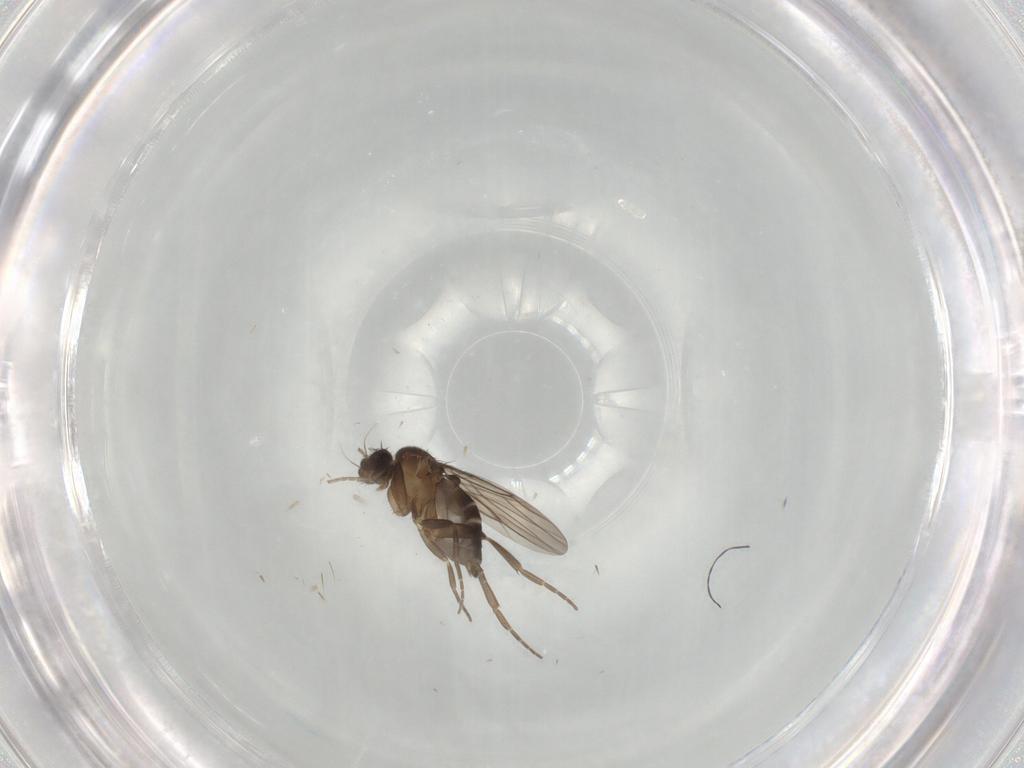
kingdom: Animalia
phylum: Arthropoda
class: Insecta
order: Diptera
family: Phoridae
